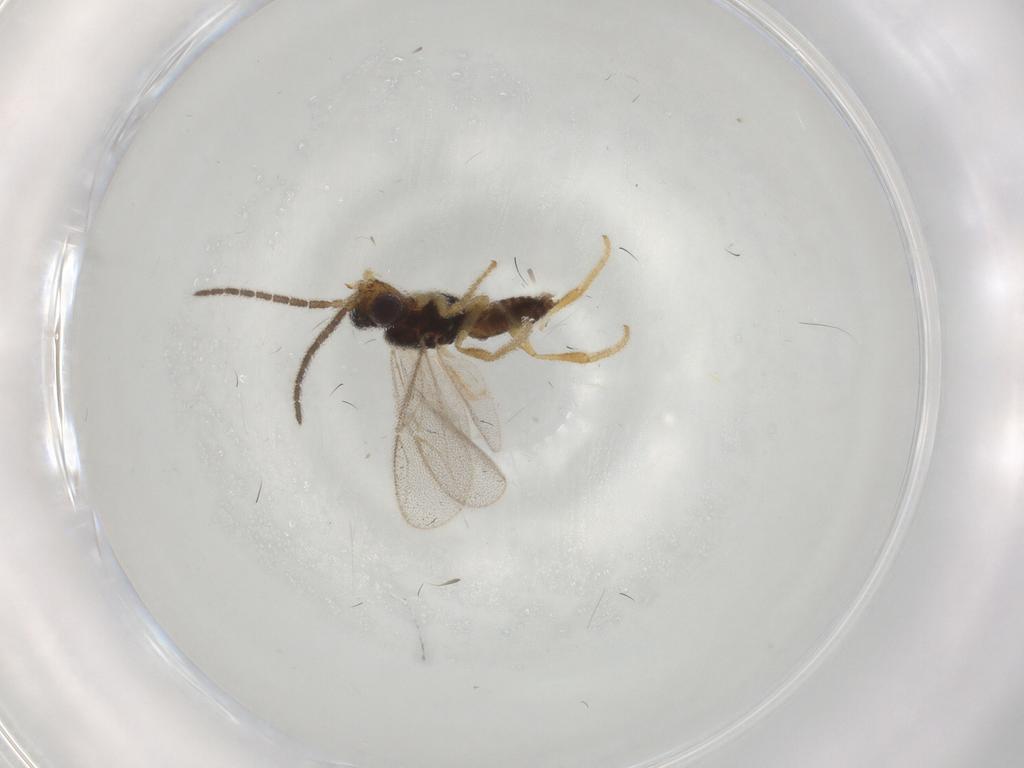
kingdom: Animalia
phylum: Arthropoda
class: Insecta
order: Hymenoptera
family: Dryinidae
